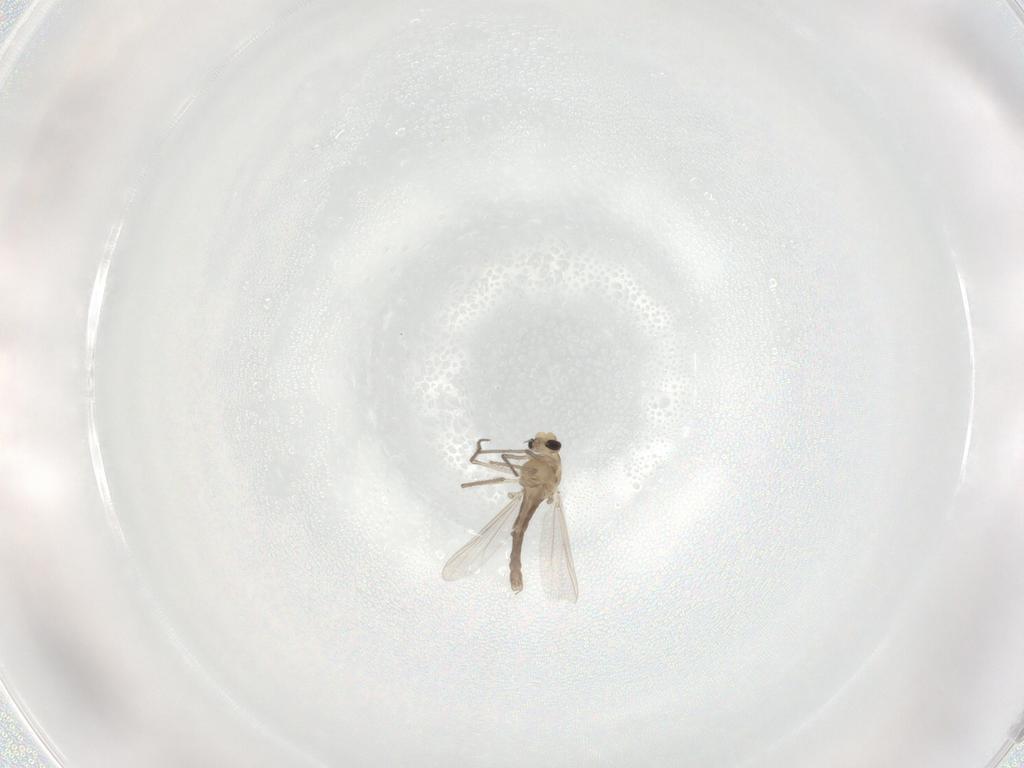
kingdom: Animalia
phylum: Arthropoda
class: Insecta
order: Diptera
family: Chironomidae
